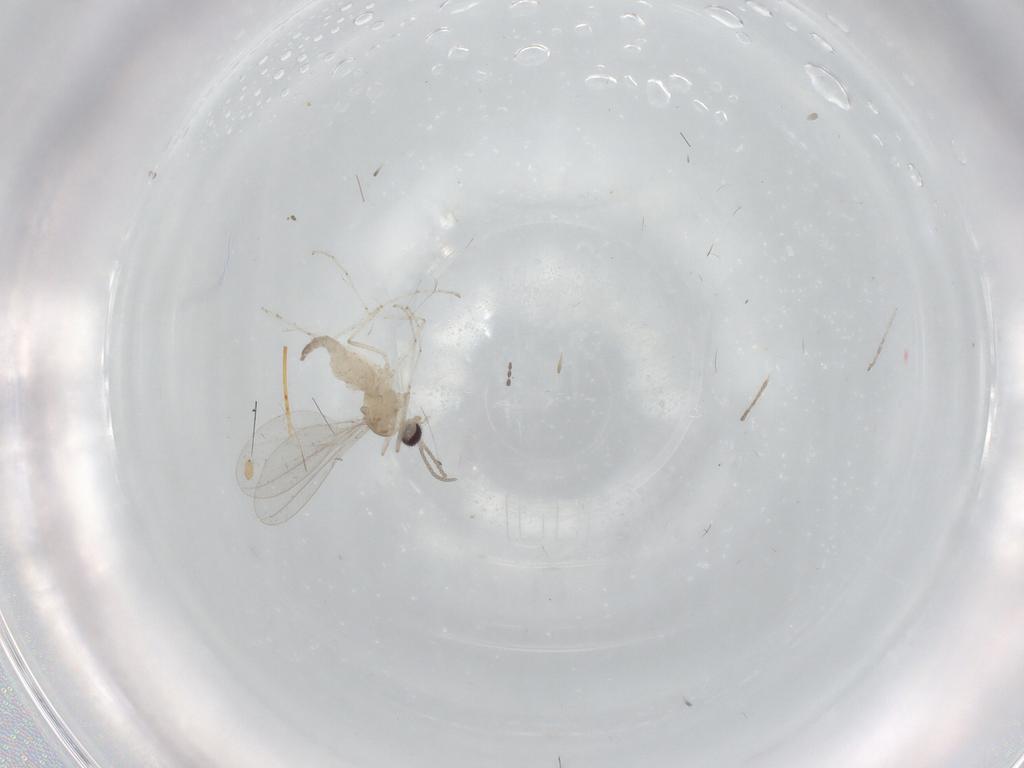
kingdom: Animalia
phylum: Arthropoda
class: Insecta
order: Diptera
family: Cecidomyiidae
